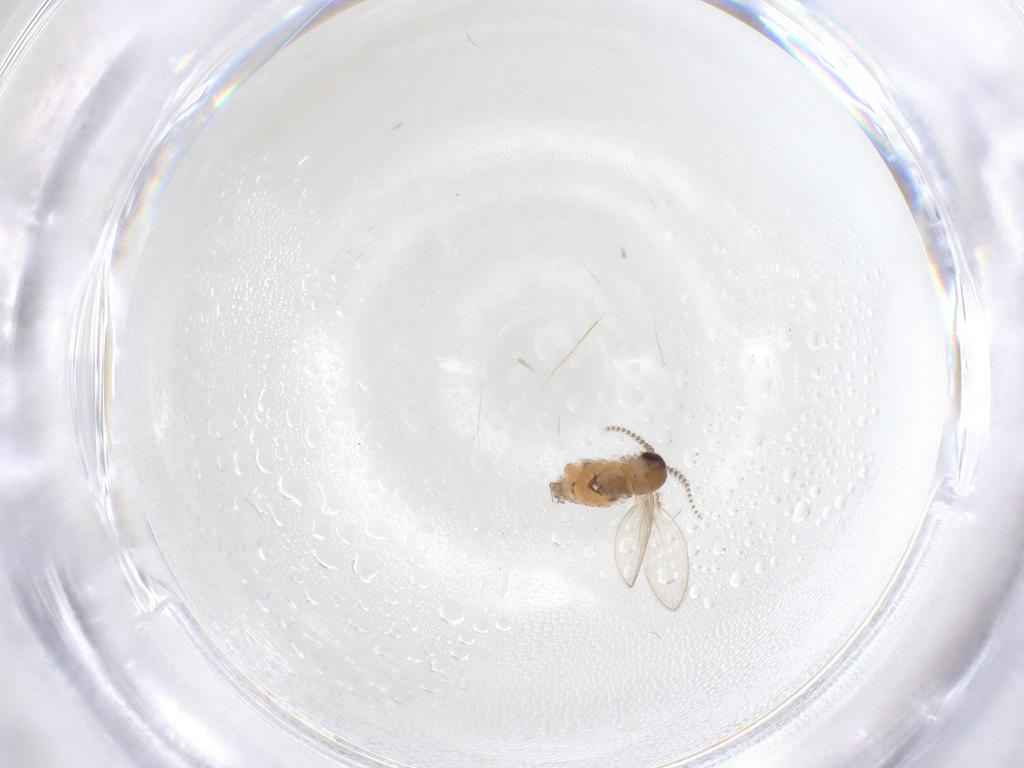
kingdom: Animalia
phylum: Arthropoda
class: Insecta
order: Diptera
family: Psychodidae
